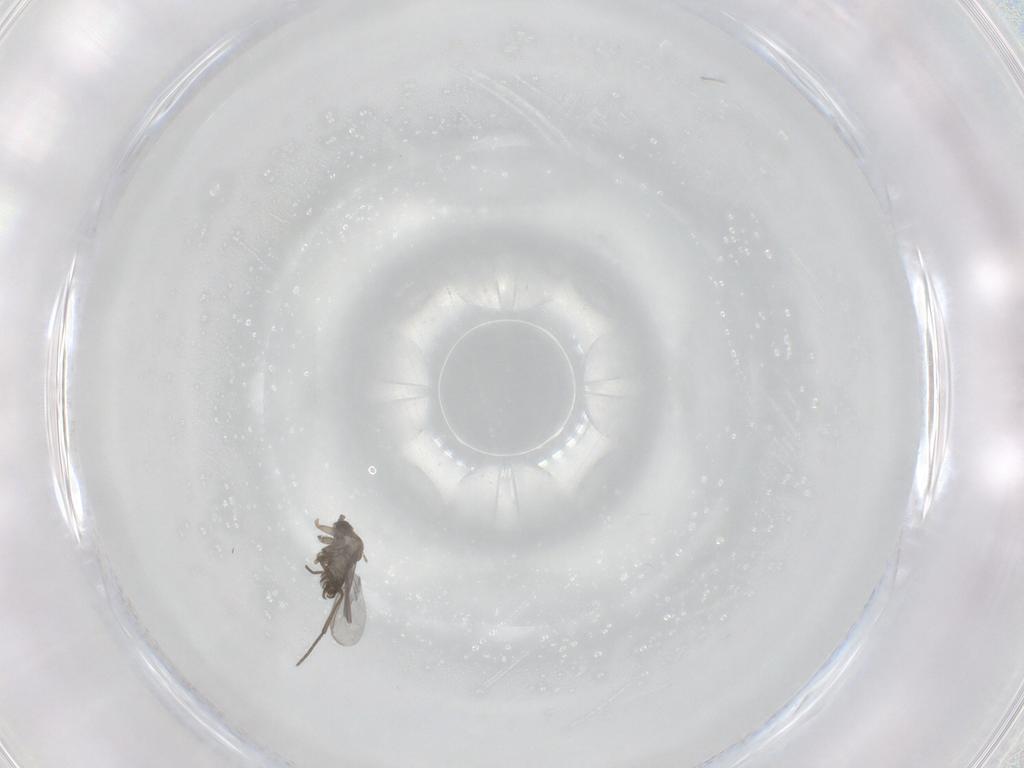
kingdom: Animalia
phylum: Arthropoda
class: Insecta
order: Diptera
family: Sciaridae
